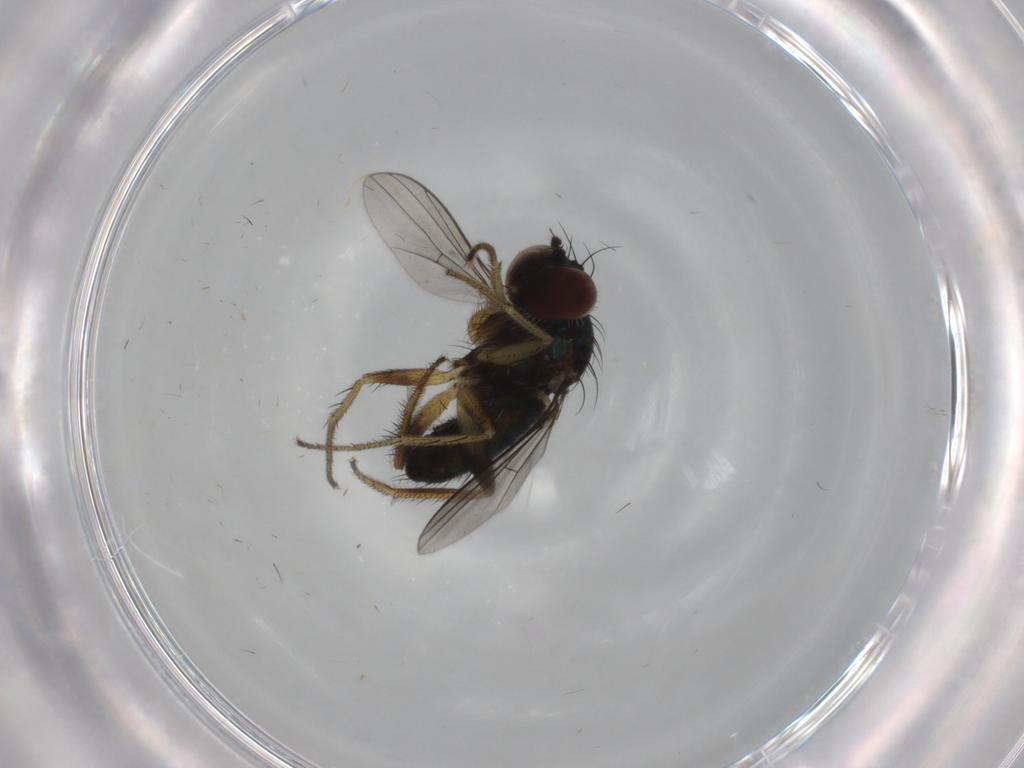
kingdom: Animalia
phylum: Arthropoda
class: Insecta
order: Diptera
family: Dolichopodidae
